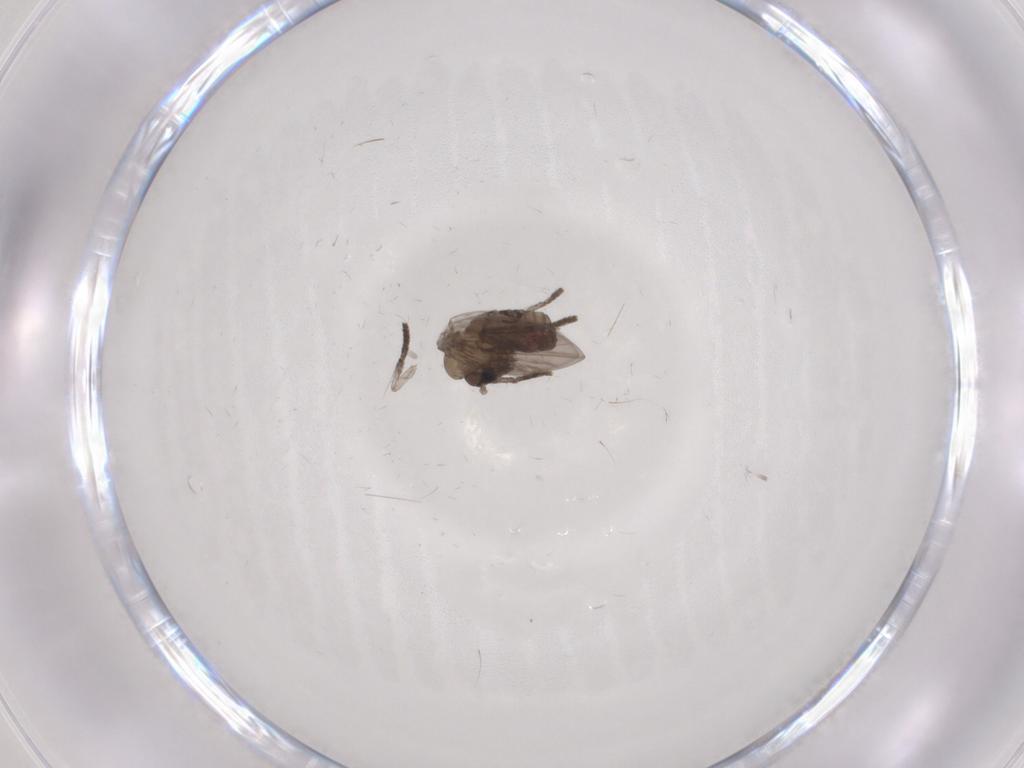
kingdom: Animalia
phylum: Arthropoda
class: Insecta
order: Diptera
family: Psychodidae
